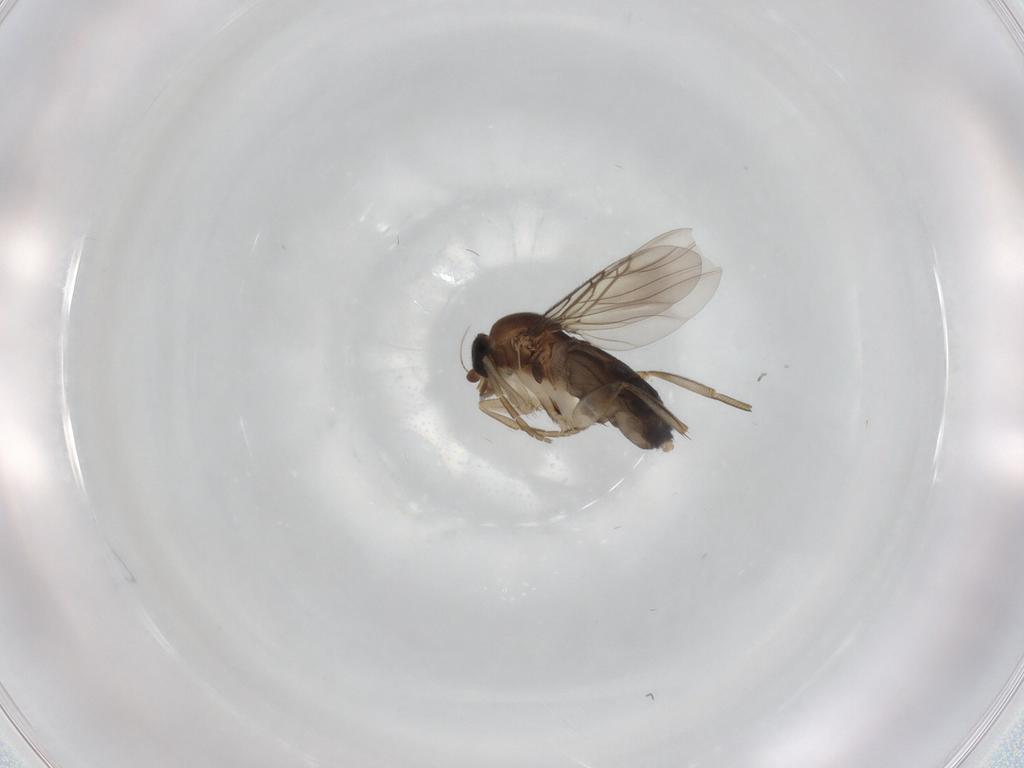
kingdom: Animalia
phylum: Arthropoda
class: Insecta
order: Diptera
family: Phoridae
